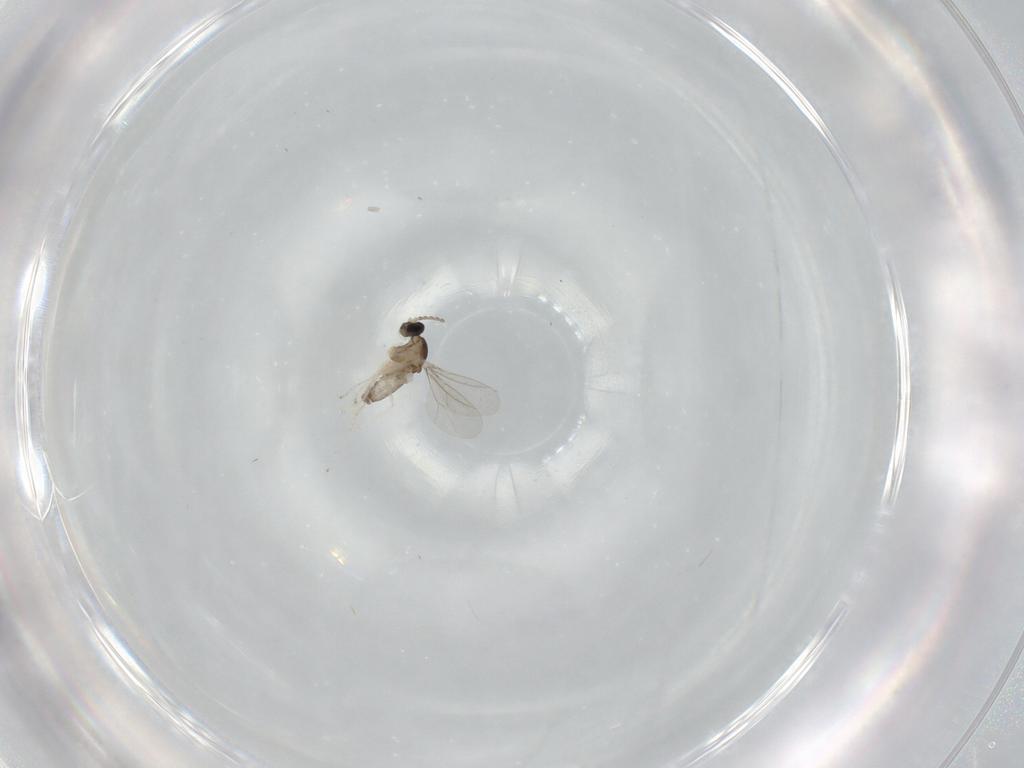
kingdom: Animalia
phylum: Arthropoda
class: Insecta
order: Diptera
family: Cecidomyiidae
